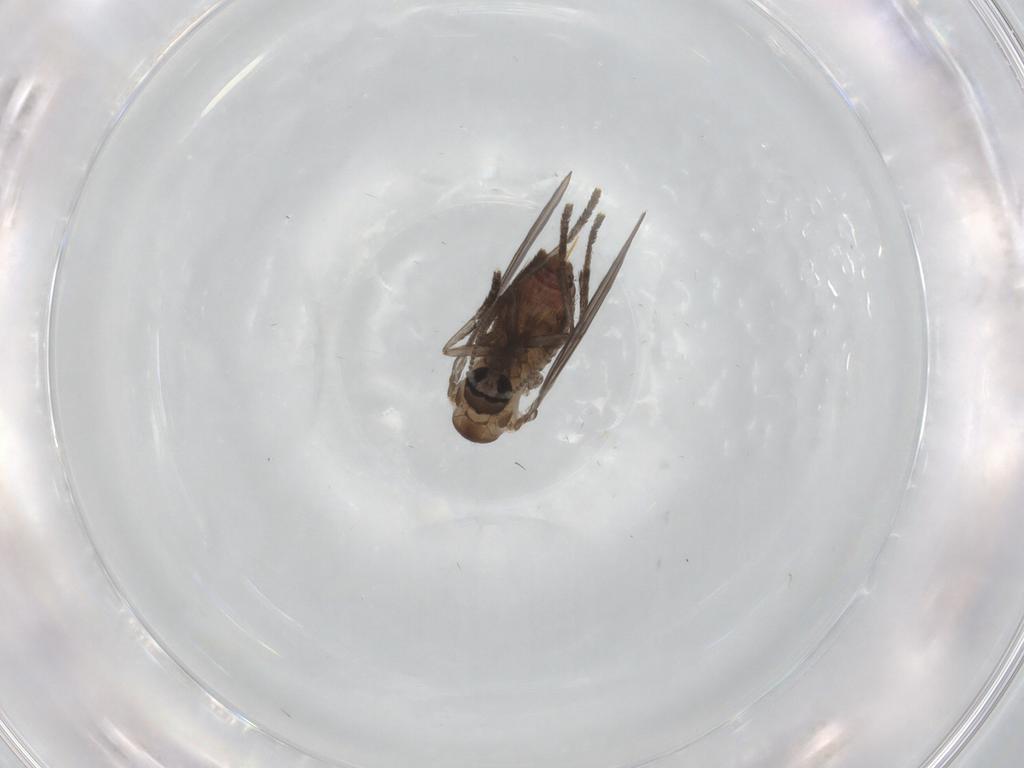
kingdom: Animalia
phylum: Arthropoda
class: Insecta
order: Diptera
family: Psychodidae
